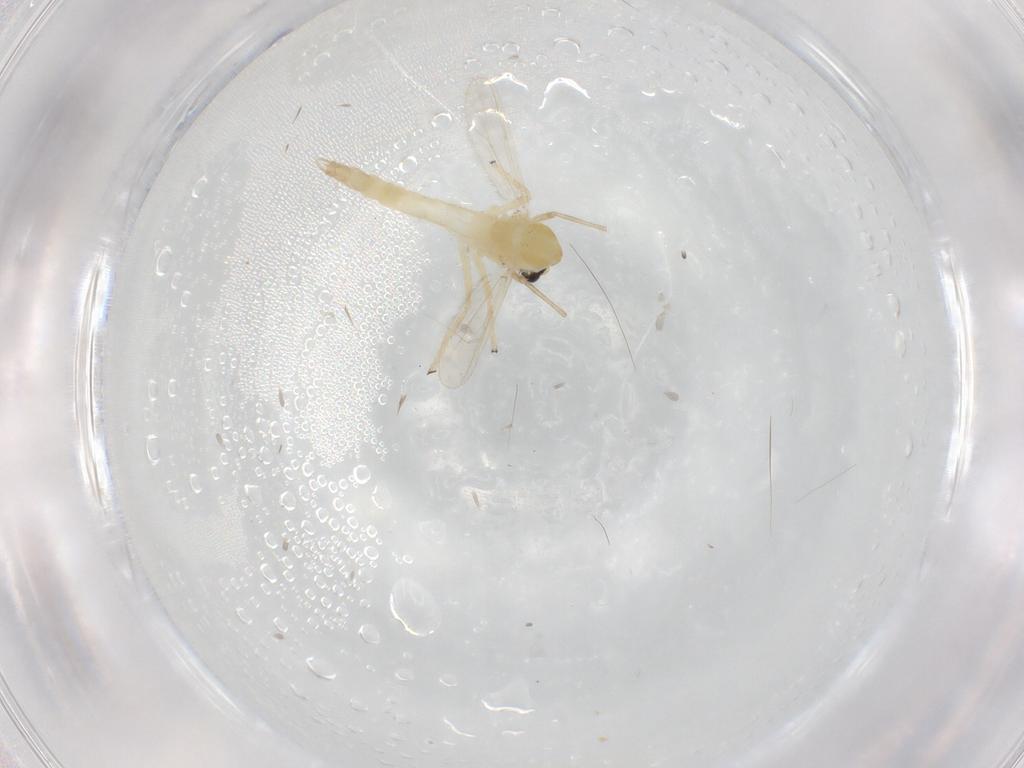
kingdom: Animalia
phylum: Arthropoda
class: Insecta
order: Diptera
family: Chironomidae
